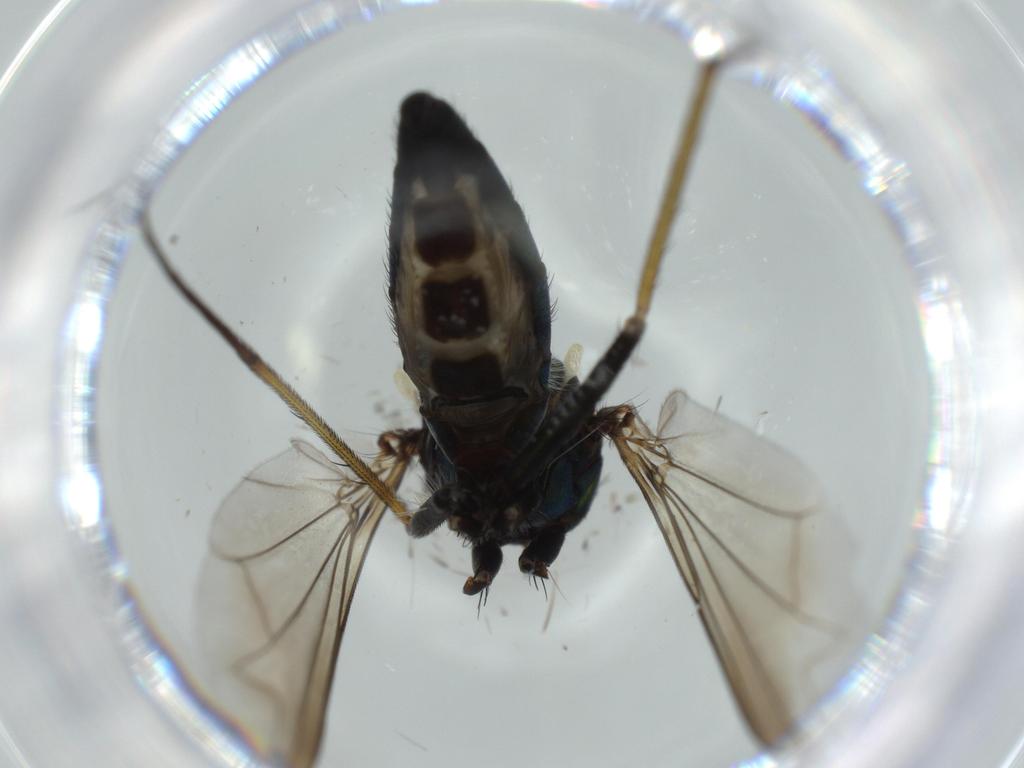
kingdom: Animalia
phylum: Arthropoda
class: Insecta
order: Diptera
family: Dolichopodidae
